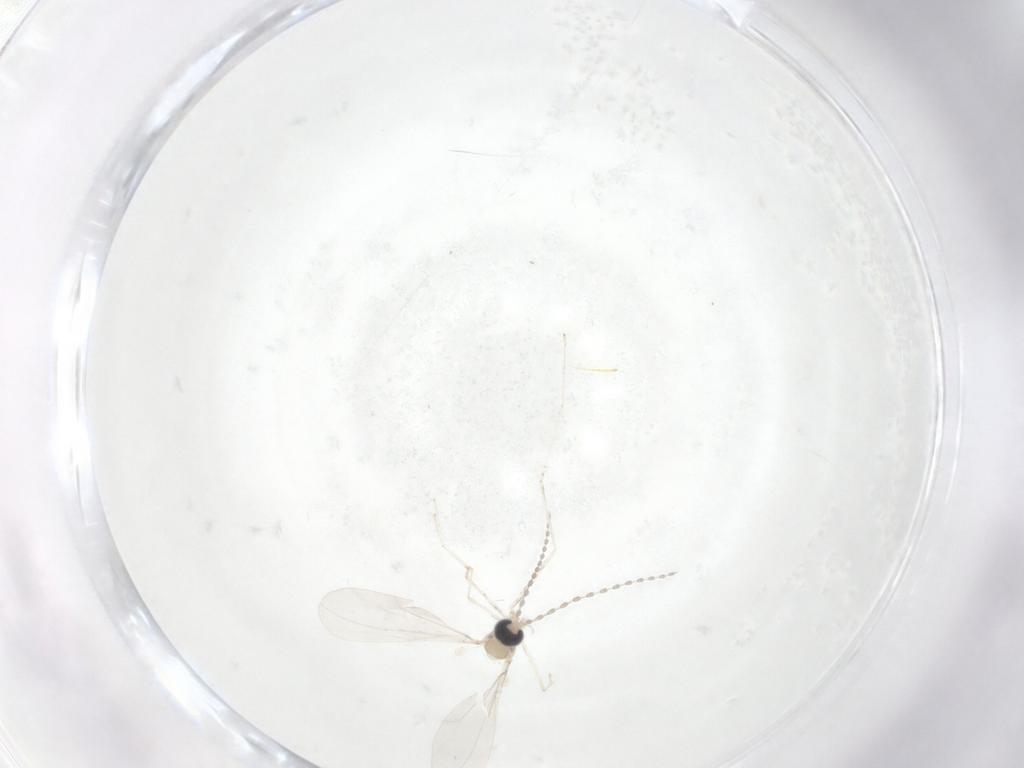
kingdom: Animalia
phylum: Arthropoda
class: Insecta
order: Diptera
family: Cecidomyiidae
